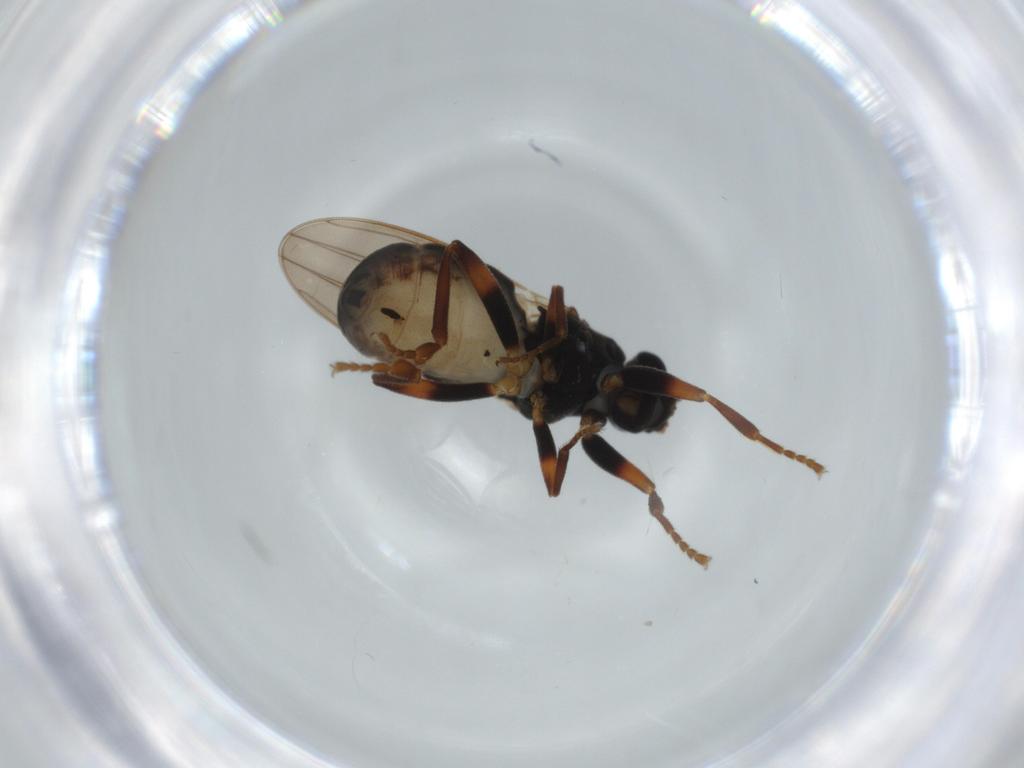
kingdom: Animalia
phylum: Arthropoda
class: Insecta
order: Diptera
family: Sphaeroceridae
